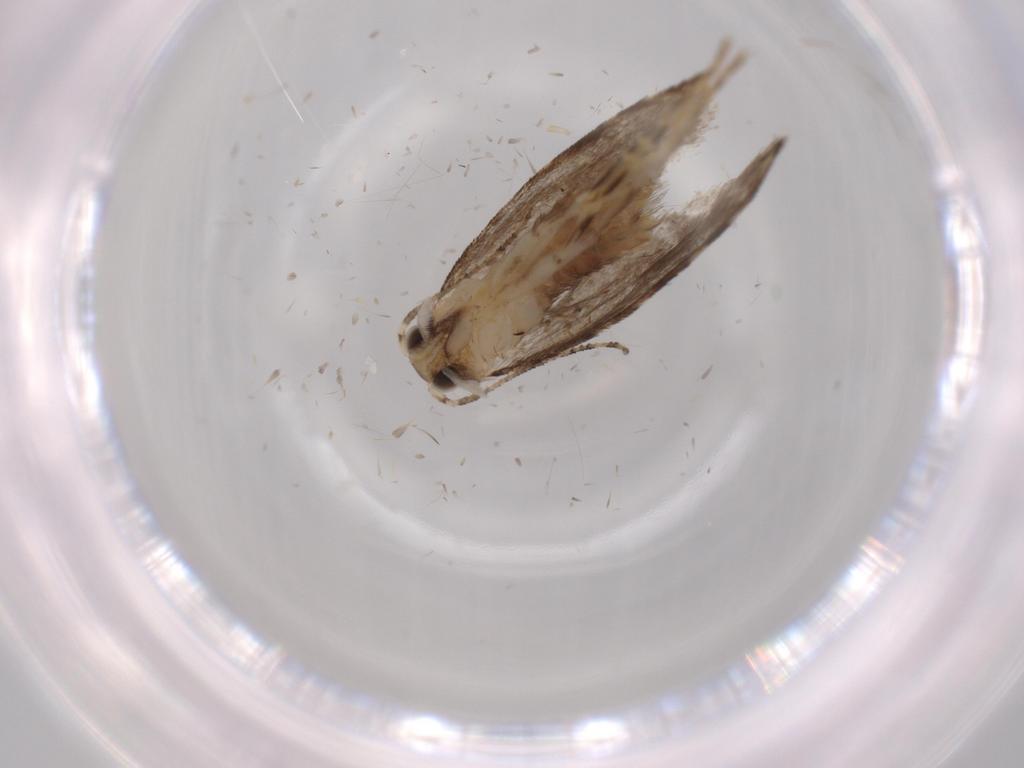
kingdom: Animalia
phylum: Arthropoda
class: Insecta
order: Lepidoptera
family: Tineidae
